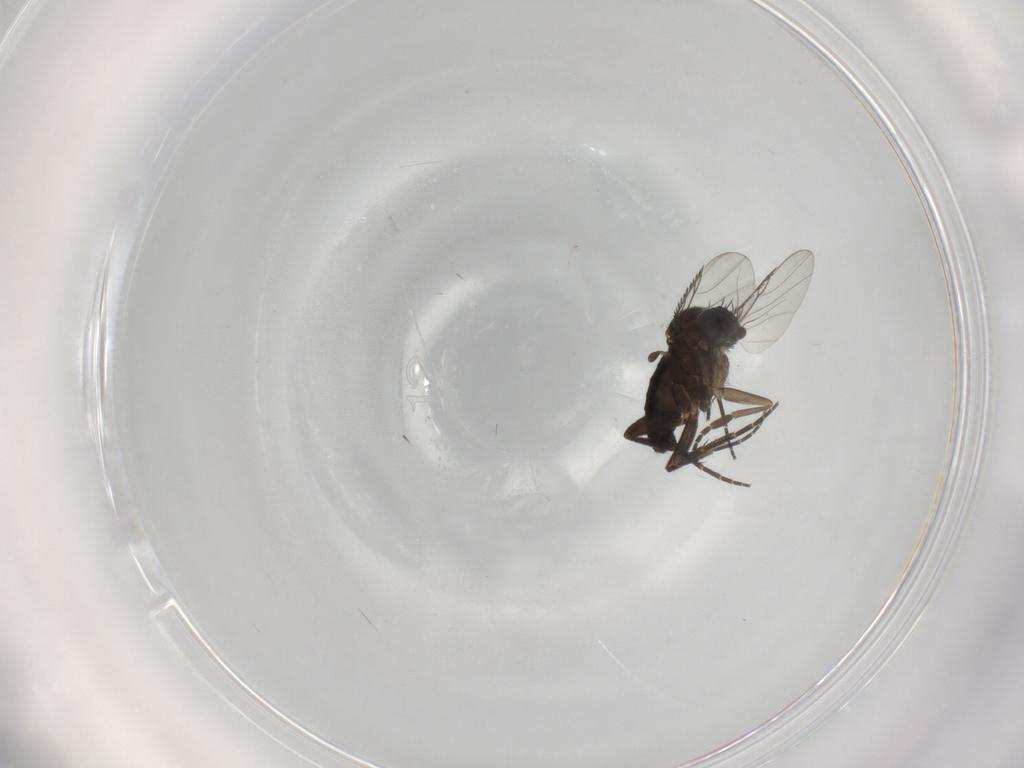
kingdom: Animalia
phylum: Arthropoda
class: Insecta
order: Diptera
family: Phoridae
